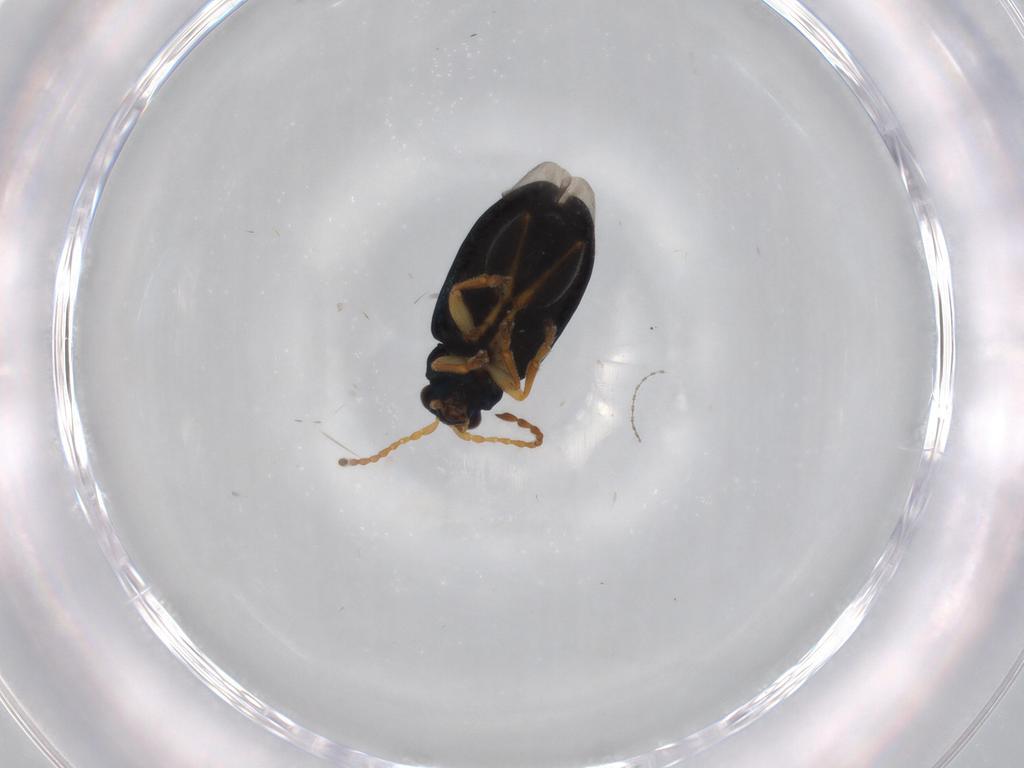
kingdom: Animalia
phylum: Arthropoda
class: Insecta
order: Coleoptera
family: Chrysomelidae
